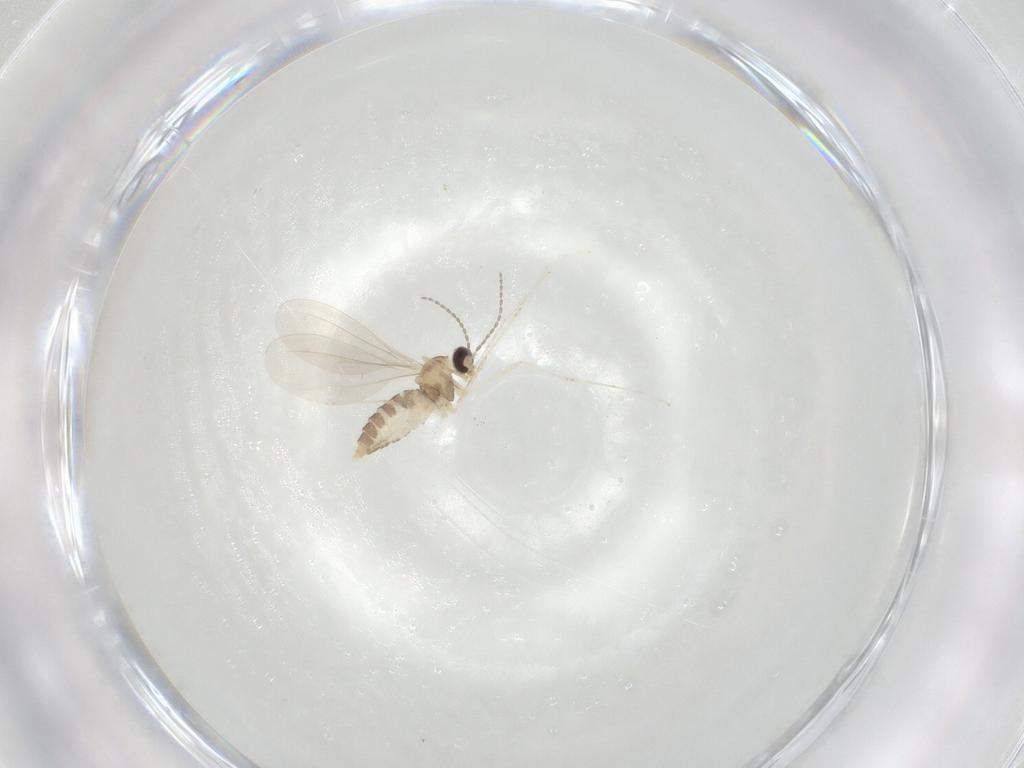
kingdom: Animalia
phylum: Arthropoda
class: Insecta
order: Diptera
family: Cecidomyiidae
